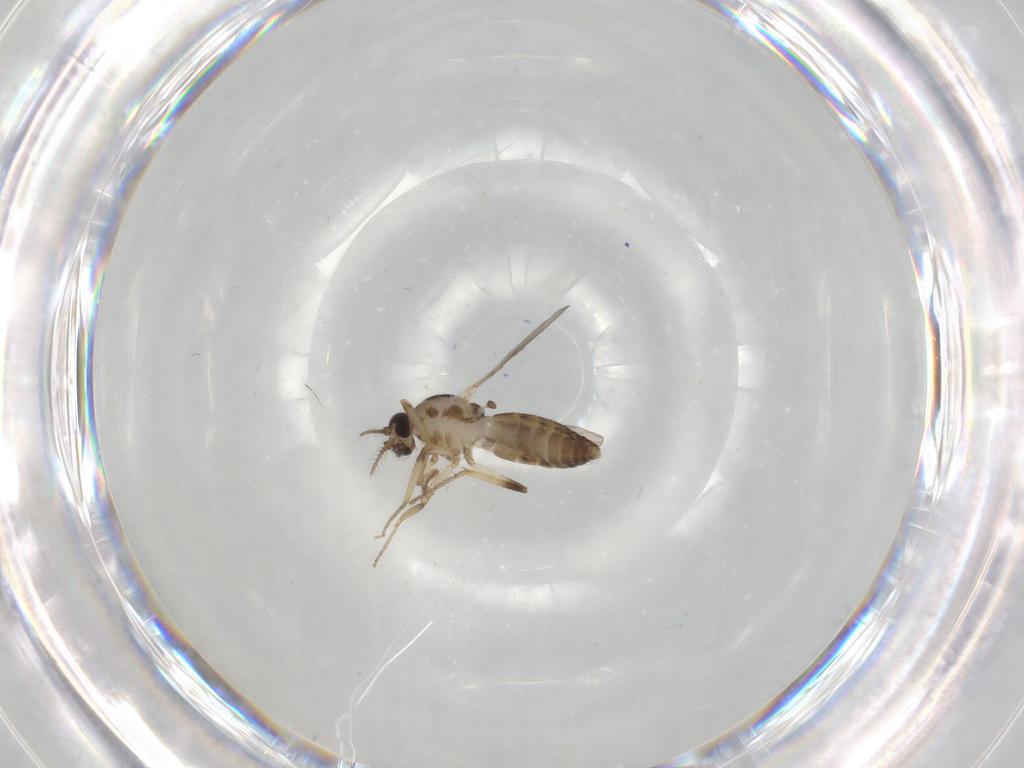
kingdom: Animalia
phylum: Arthropoda
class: Insecta
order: Diptera
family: Ceratopogonidae
